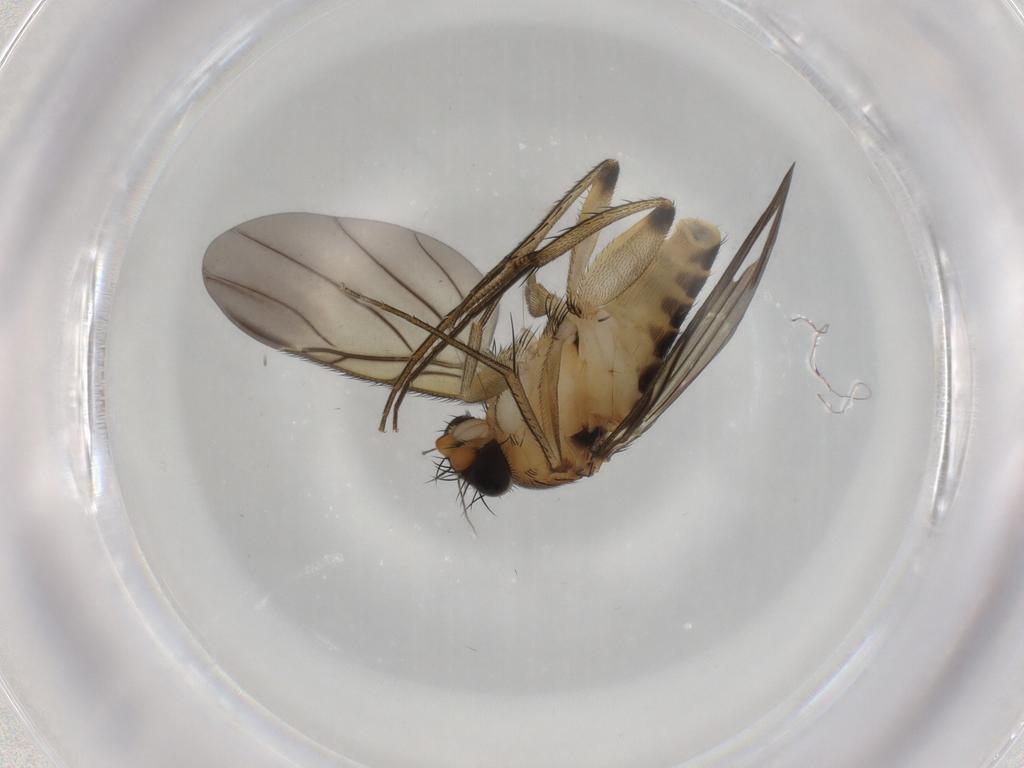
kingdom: Animalia
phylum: Arthropoda
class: Insecta
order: Diptera
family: Phoridae
